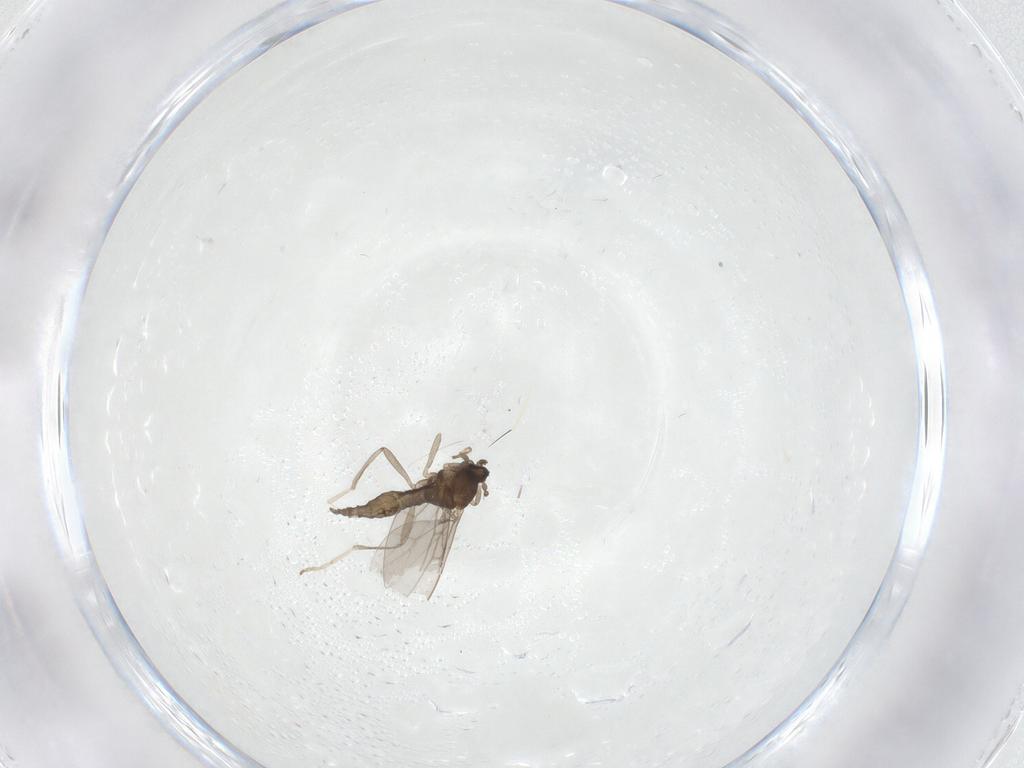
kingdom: Animalia
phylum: Arthropoda
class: Insecta
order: Diptera
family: Cecidomyiidae
